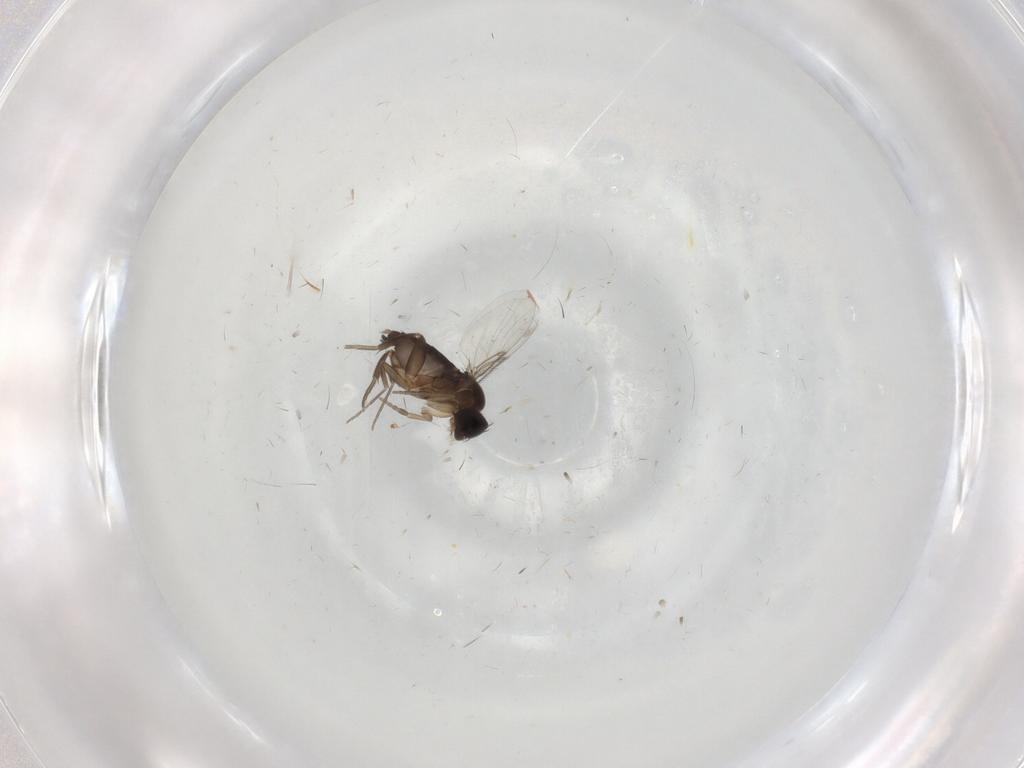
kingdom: Animalia
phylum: Arthropoda
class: Insecta
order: Diptera
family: Cecidomyiidae
